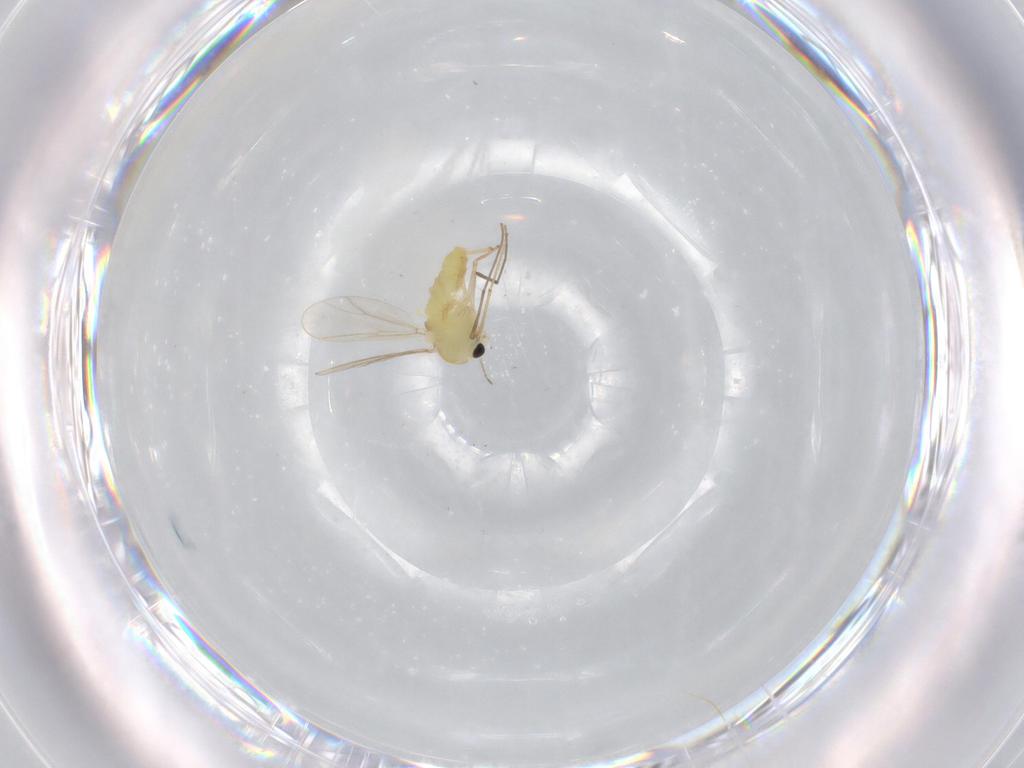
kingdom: Animalia
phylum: Arthropoda
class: Insecta
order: Diptera
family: Chironomidae
